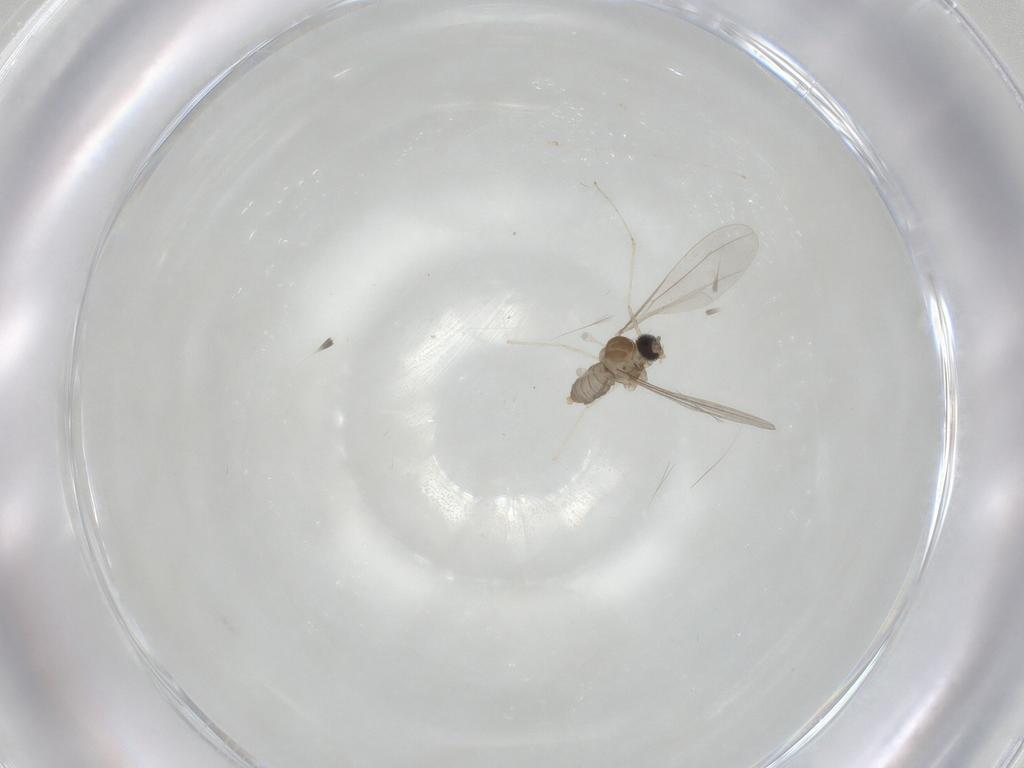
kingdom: Animalia
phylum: Arthropoda
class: Insecta
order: Diptera
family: Cecidomyiidae
